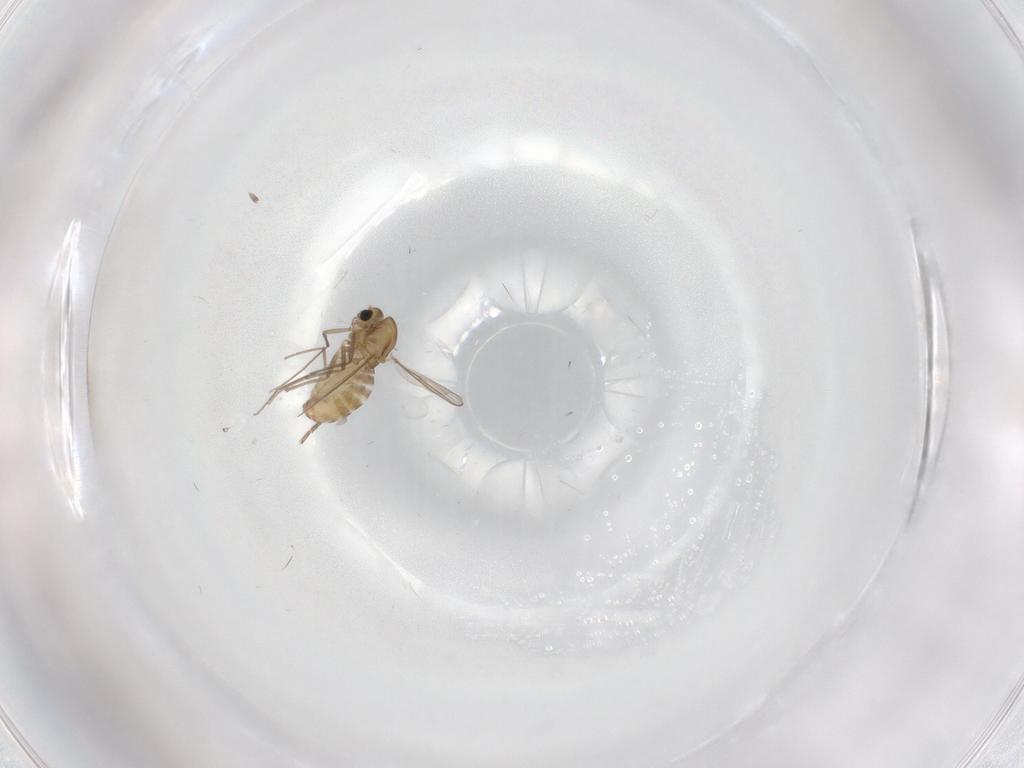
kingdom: Animalia
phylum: Arthropoda
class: Insecta
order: Diptera
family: Chironomidae
